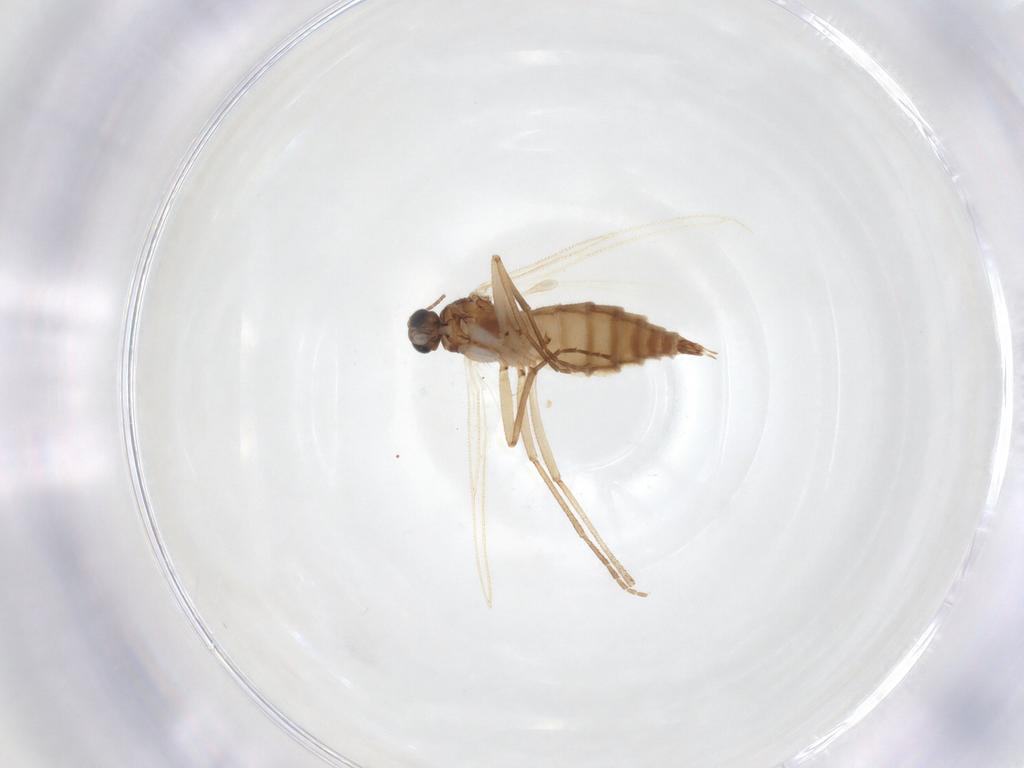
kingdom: Animalia
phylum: Arthropoda
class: Insecta
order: Diptera
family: Sciaridae
